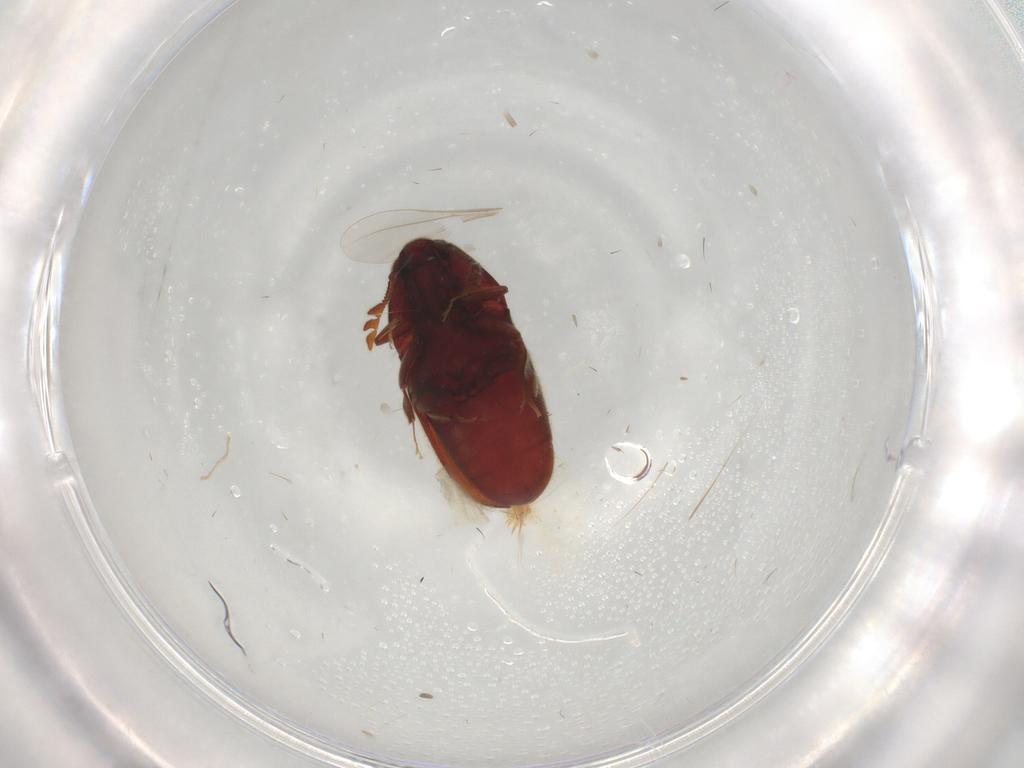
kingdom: Animalia
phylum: Arthropoda
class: Insecta
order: Coleoptera
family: Throscidae
